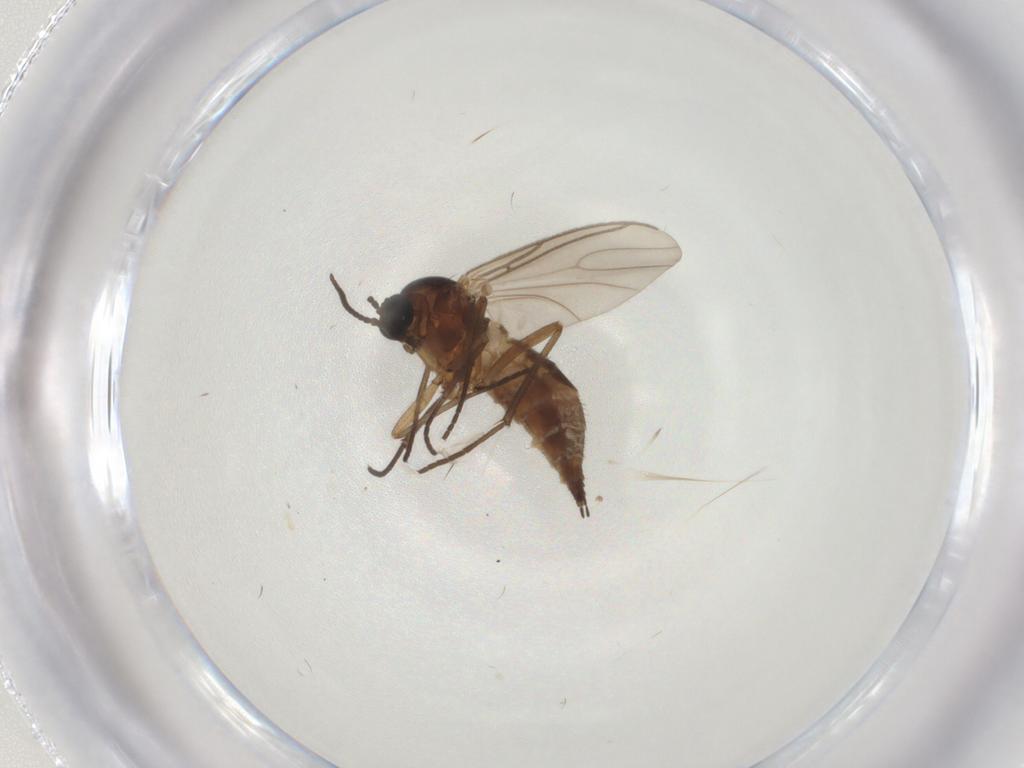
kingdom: Animalia
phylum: Arthropoda
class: Insecta
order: Diptera
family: Sciaridae
